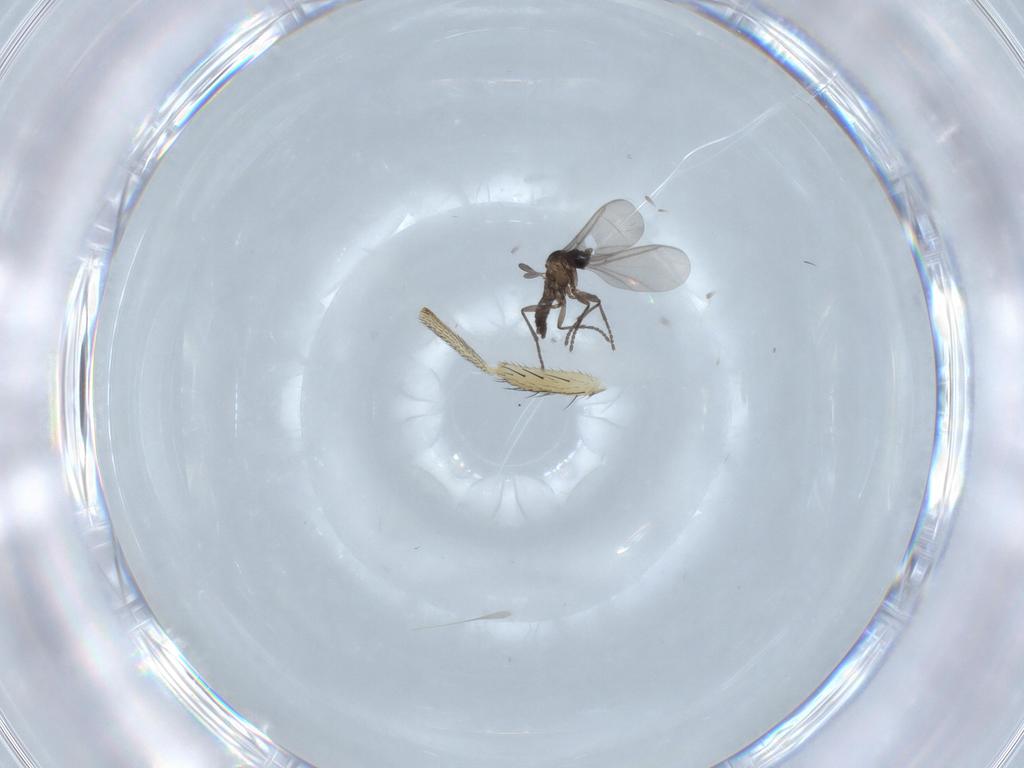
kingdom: Animalia
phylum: Arthropoda
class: Insecta
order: Diptera
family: Lauxaniidae
